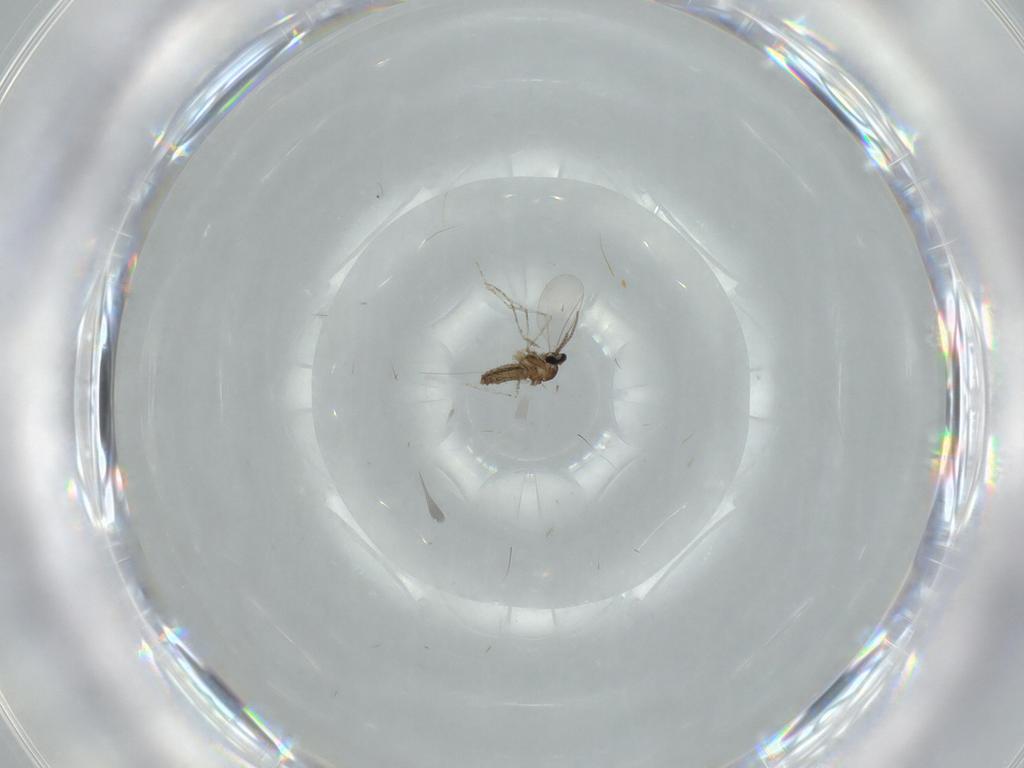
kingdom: Animalia
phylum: Arthropoda
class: Insecta
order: Diptera
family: Cecidomyiidae
